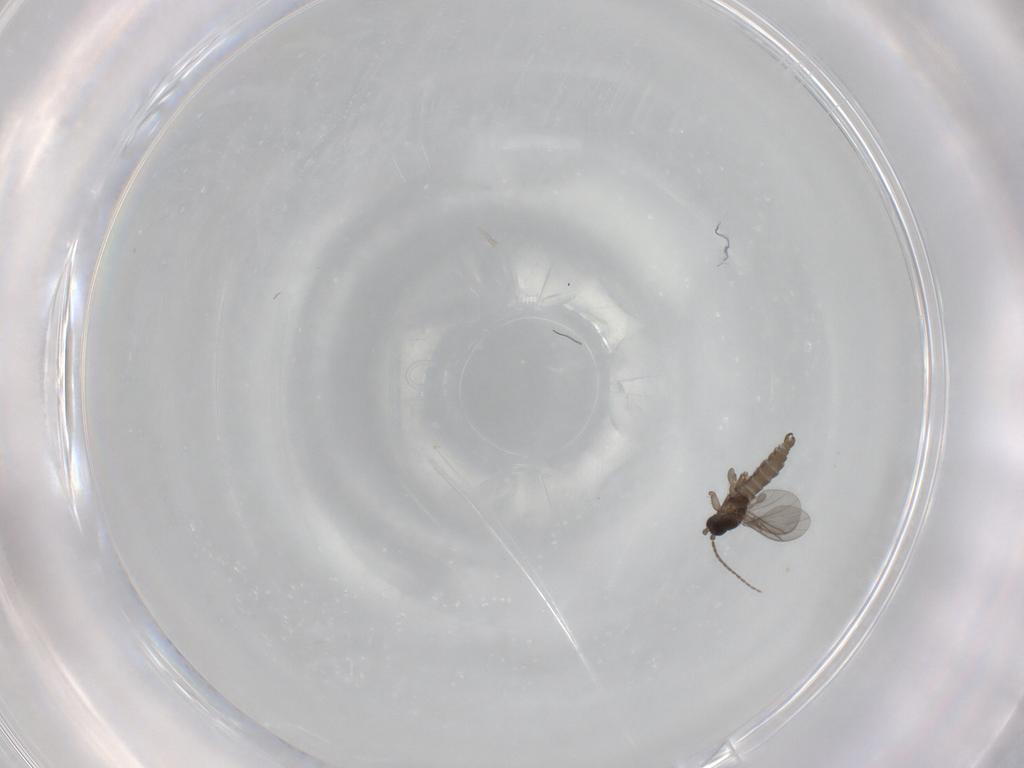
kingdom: Animalia
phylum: Arthropoda
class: Insecta
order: Diptera
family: Sciaridae
